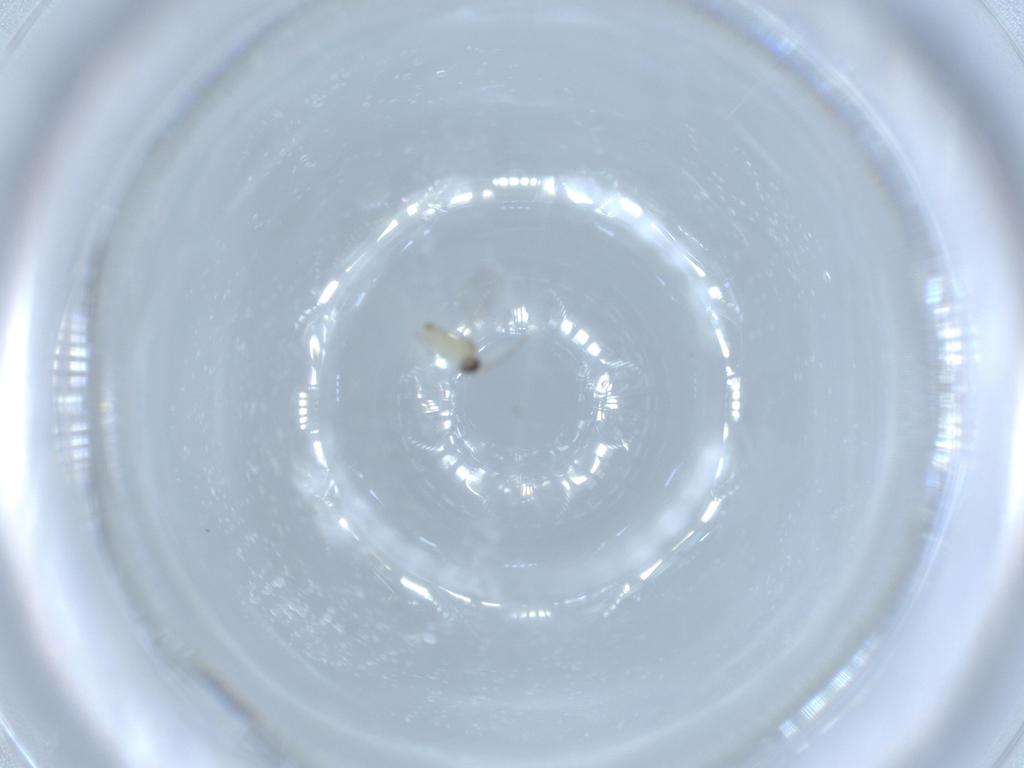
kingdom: Animalia
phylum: Arthropoda
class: Insecta
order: Diptera
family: Cecidomyiidae
